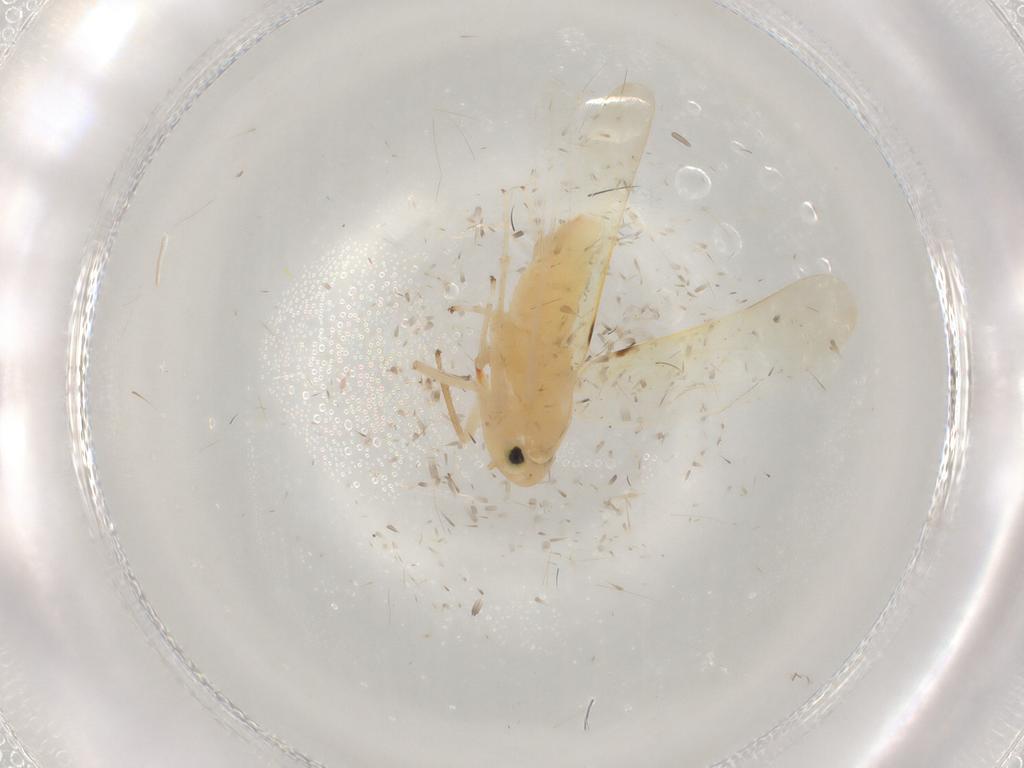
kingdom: Animalia
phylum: Arthropoda
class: Insecta
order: Hemiptera
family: Cicadellidae
